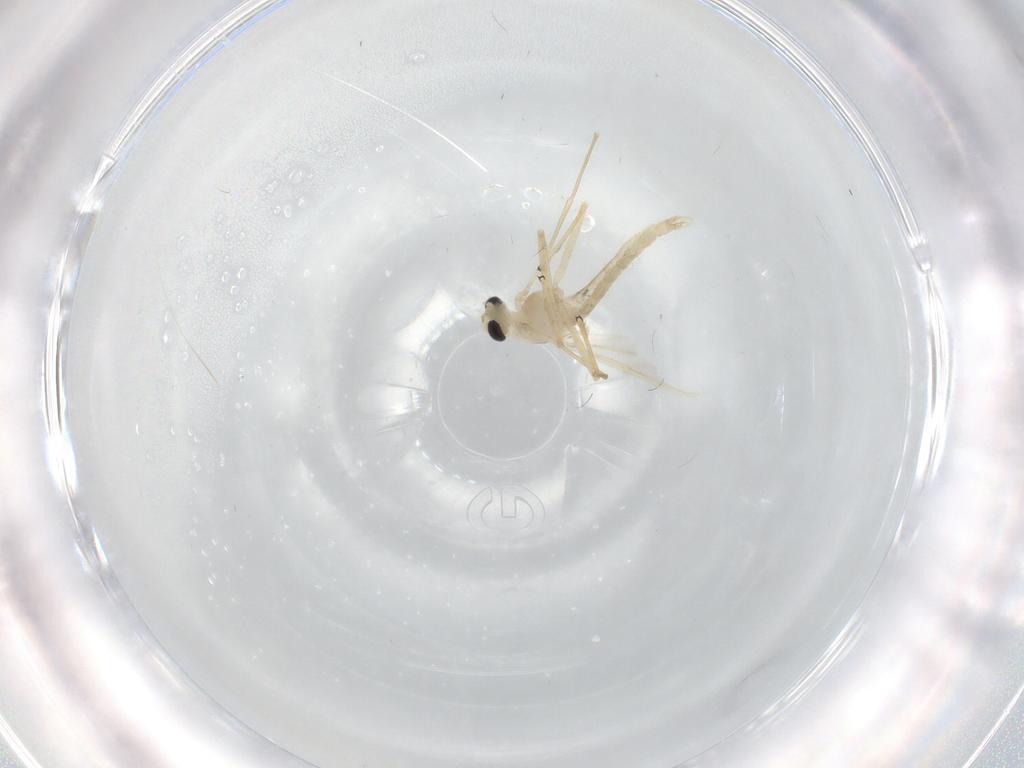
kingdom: Animalia
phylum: Arthropoda
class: Insecta
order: Diptera
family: Chironomidae
